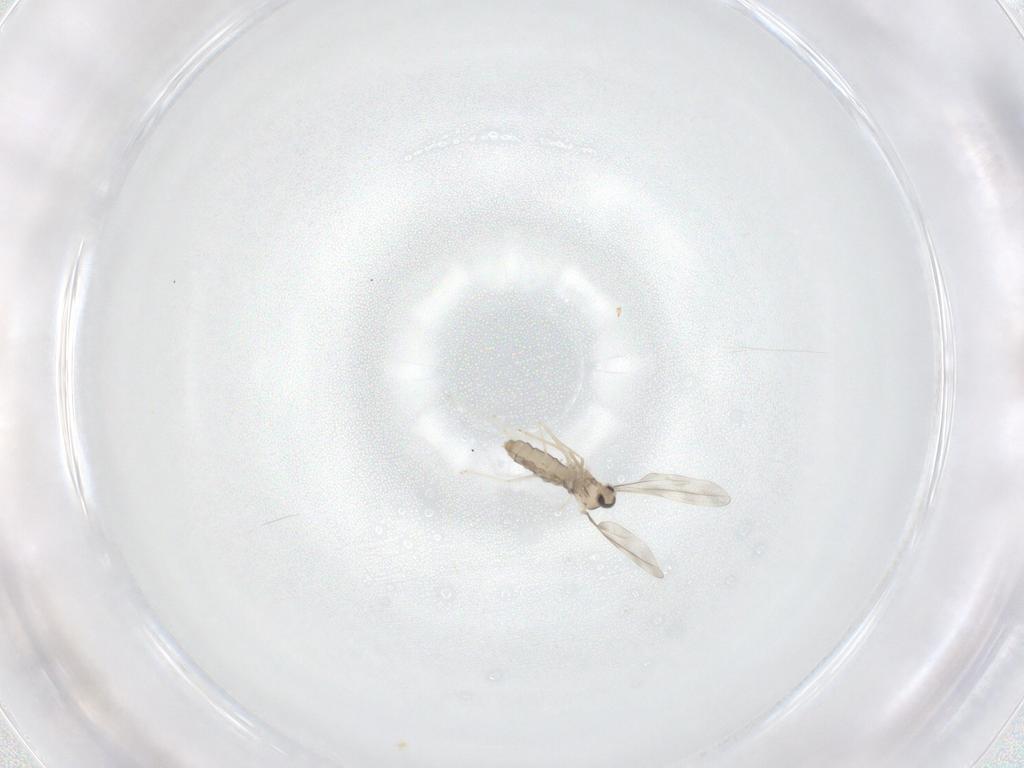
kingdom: Animalia
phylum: Arthropoda
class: Insecta
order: Diptera
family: Cecidomyiidae
